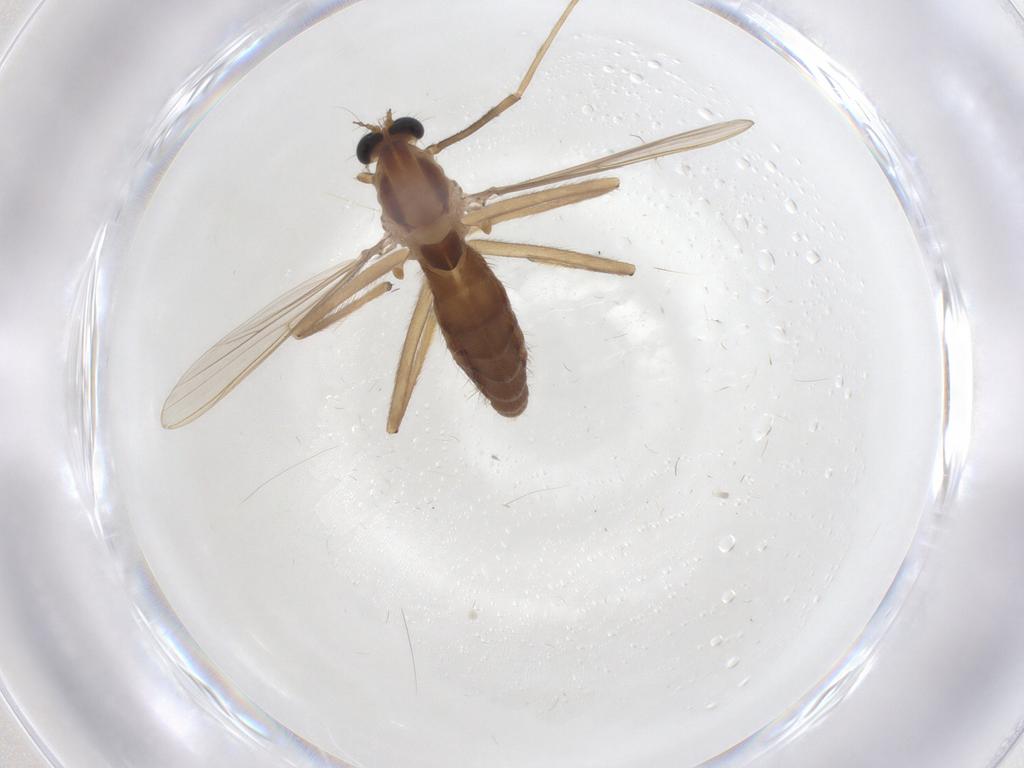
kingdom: Animalia
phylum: Arthropoda
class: Insecta
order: Diptera
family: Chironomidae
